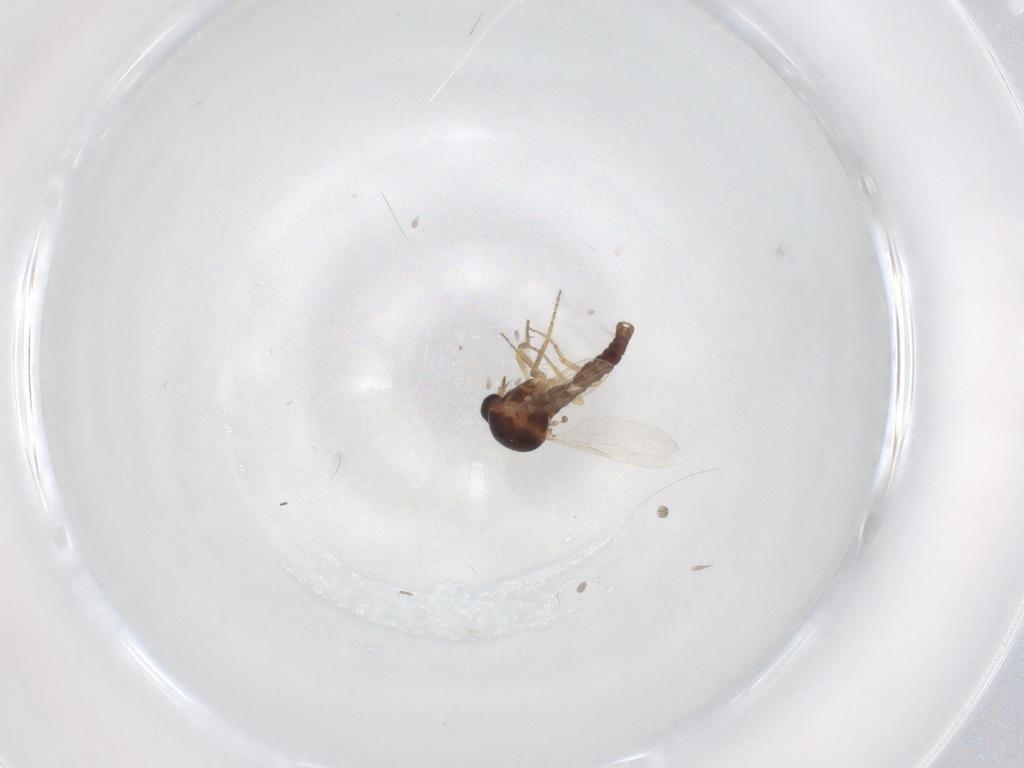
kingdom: Animalia
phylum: Arthropoda
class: Insecta
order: Diptera
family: Ceratopogonidae
